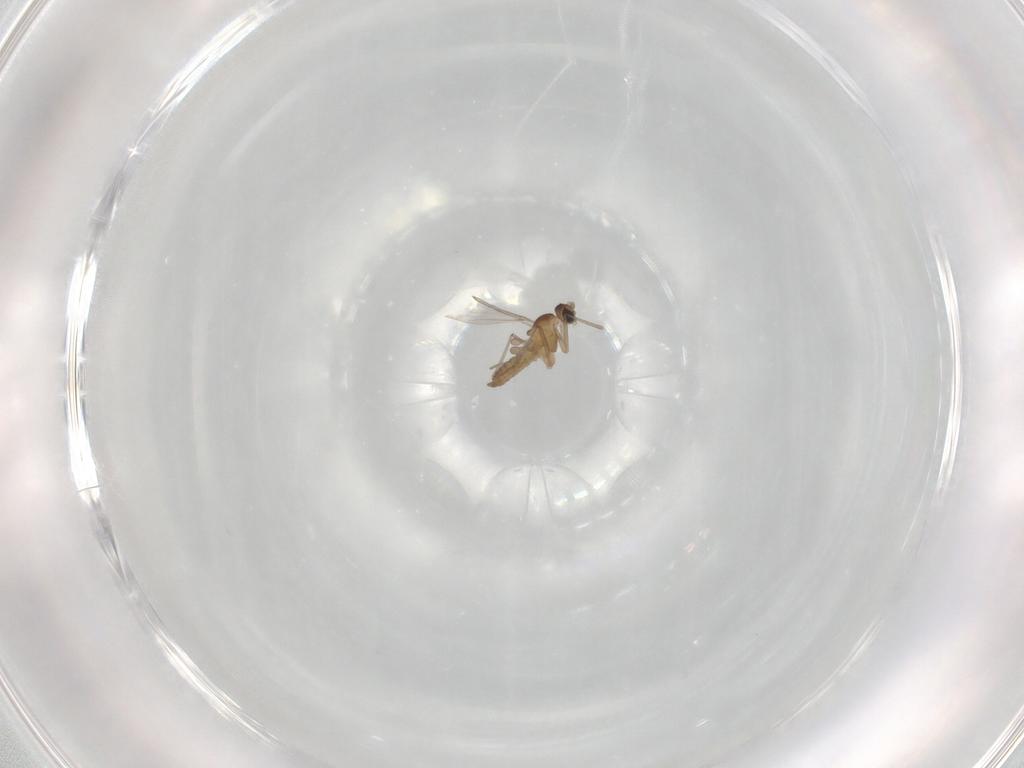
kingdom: Animalia
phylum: Arthropoda
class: Insecta
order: Diptera
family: Cecidomyiidae
